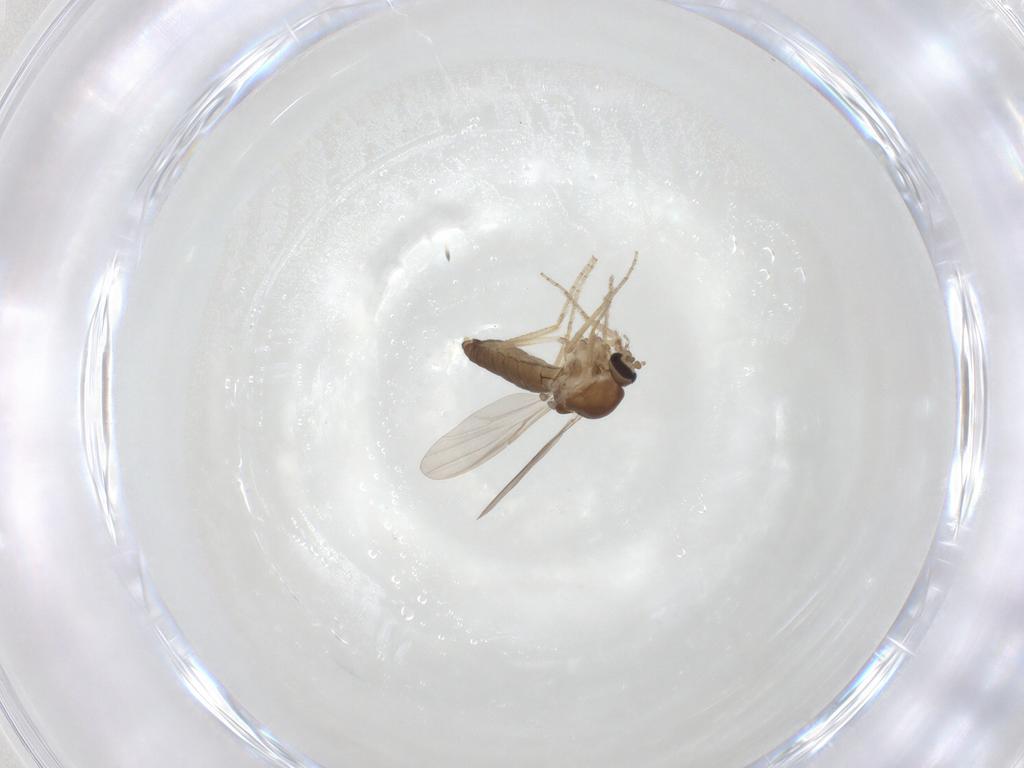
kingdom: Animalia
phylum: Arthropoda
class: Insecta
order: Diptera
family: Ceratopogonidae
